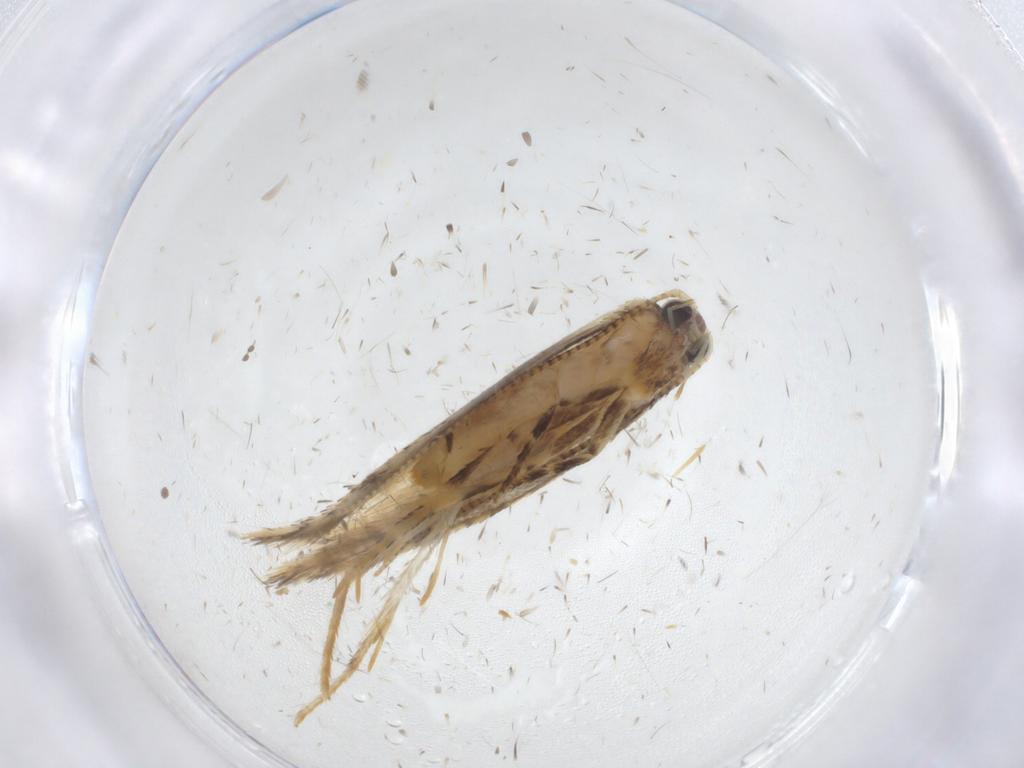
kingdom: Animalia
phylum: Arthropoda
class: Insecta
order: Lepidoptera
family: Tineidae
